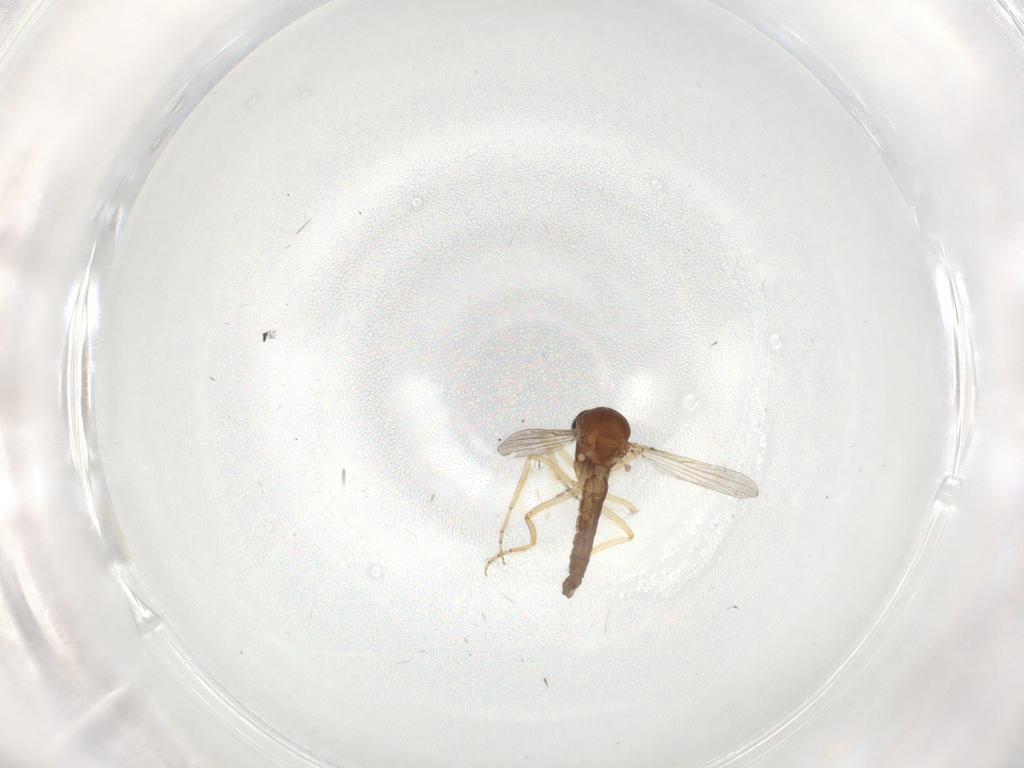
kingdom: Animalia
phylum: Arthropoda
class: Insecta
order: Diptera
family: Ceratopogonidae
